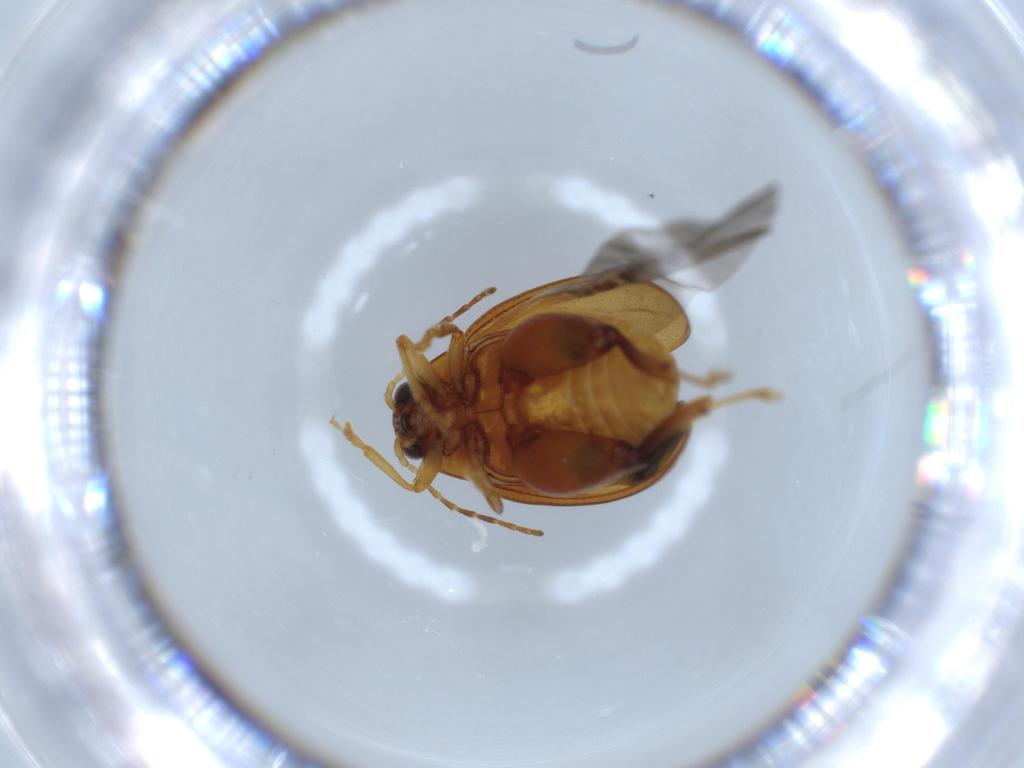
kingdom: Animalia
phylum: Arthropoda
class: Insecta
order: Coleoptera
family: Chrysomelidae
